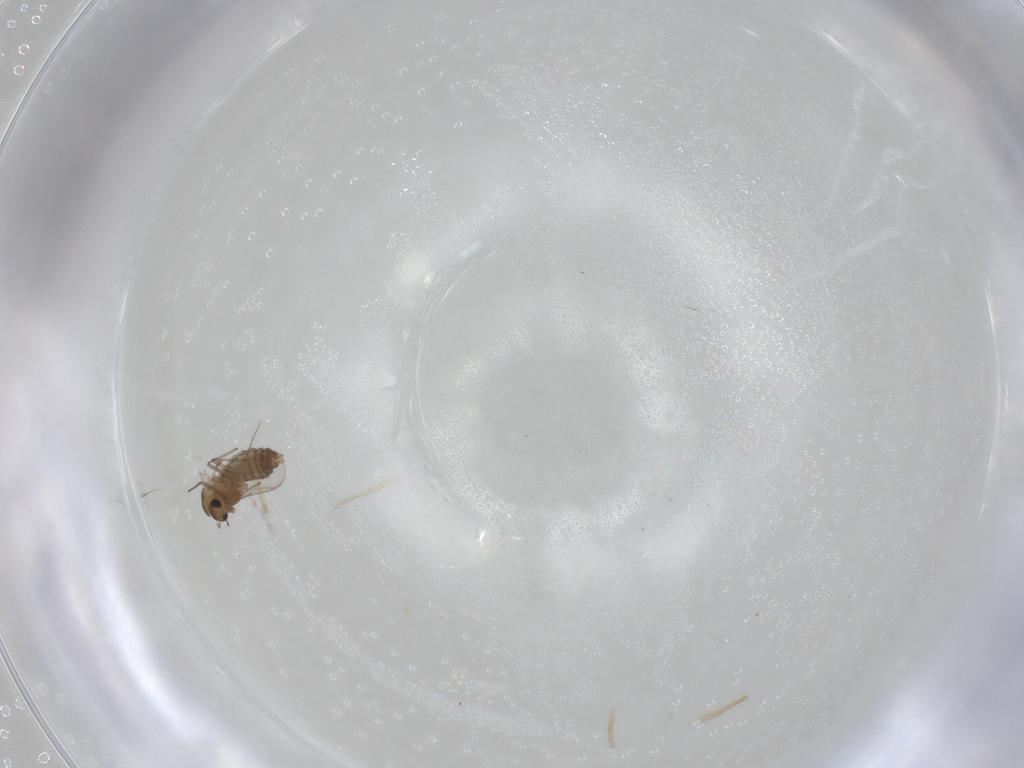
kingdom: Animalia
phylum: Arthropoda
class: Insecta
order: Diptera
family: Chironomidae
